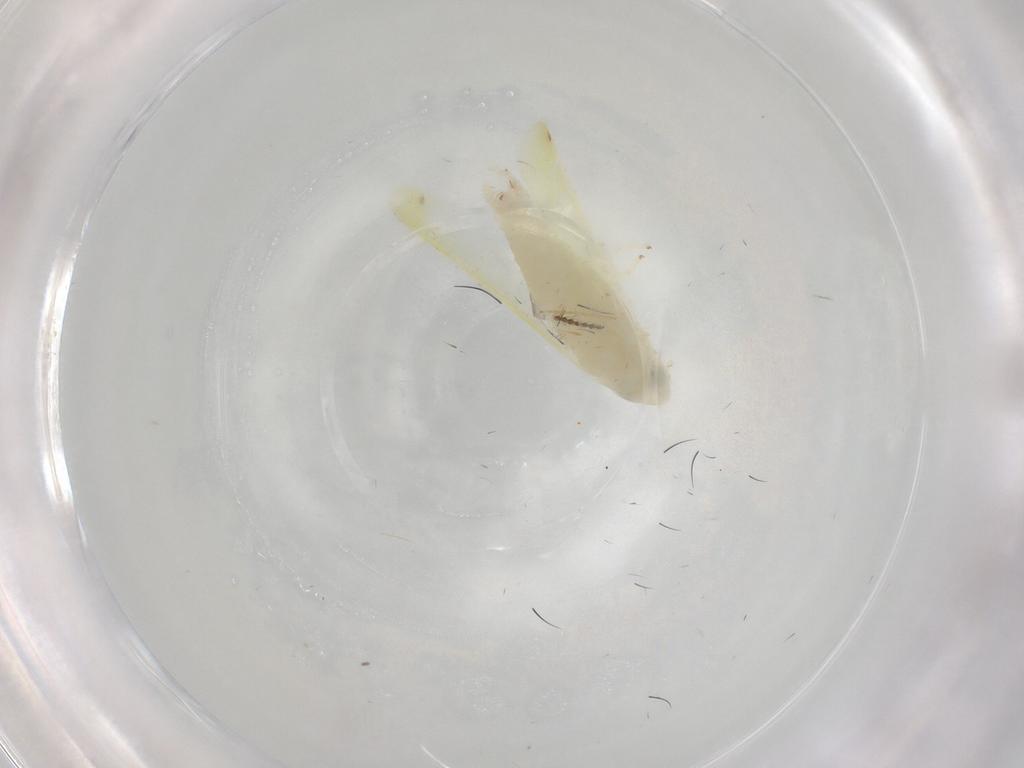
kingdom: Animalia
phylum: Arthropoda
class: Insecta
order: Hemiptera
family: Cicadellidae
